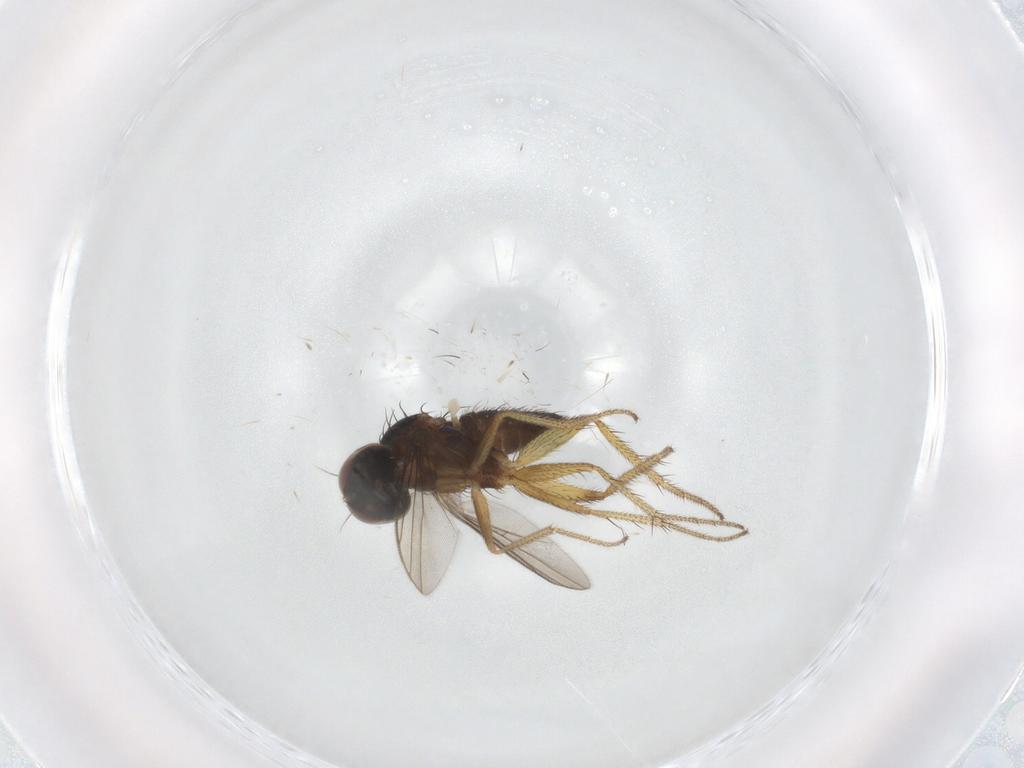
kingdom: Animalia
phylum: Arthropoda
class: Insecta
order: Diptera
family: Dolichopodidae
